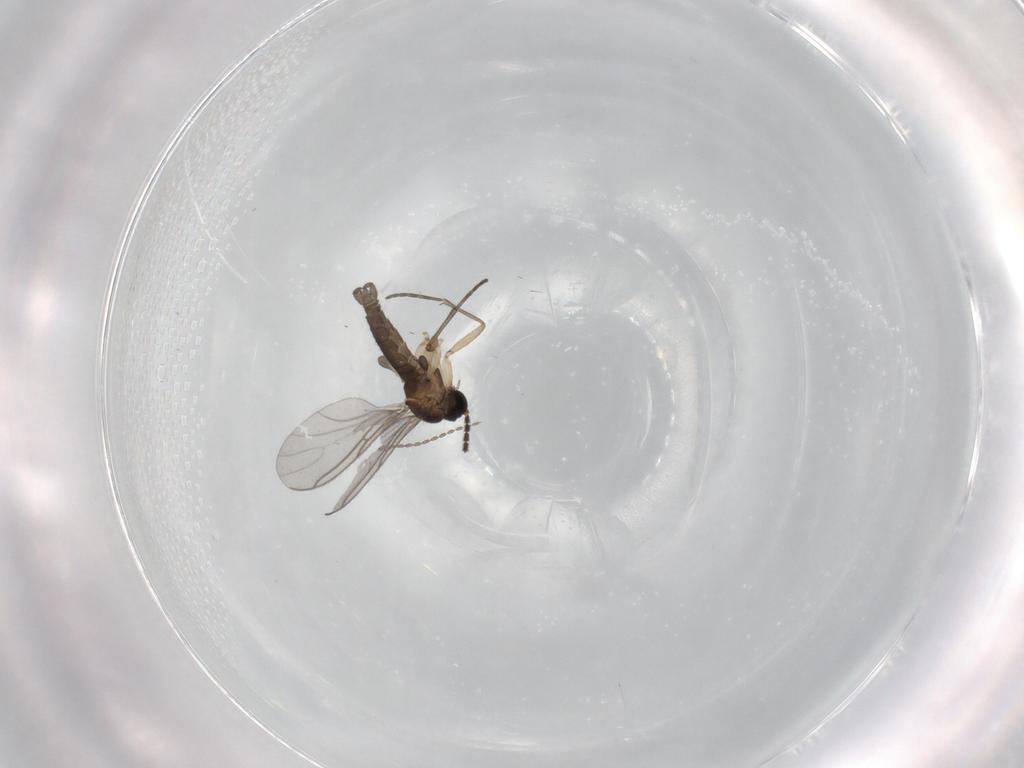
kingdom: Animalia
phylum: Arthropoda
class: Insecta
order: Diptera
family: Sciaridae
